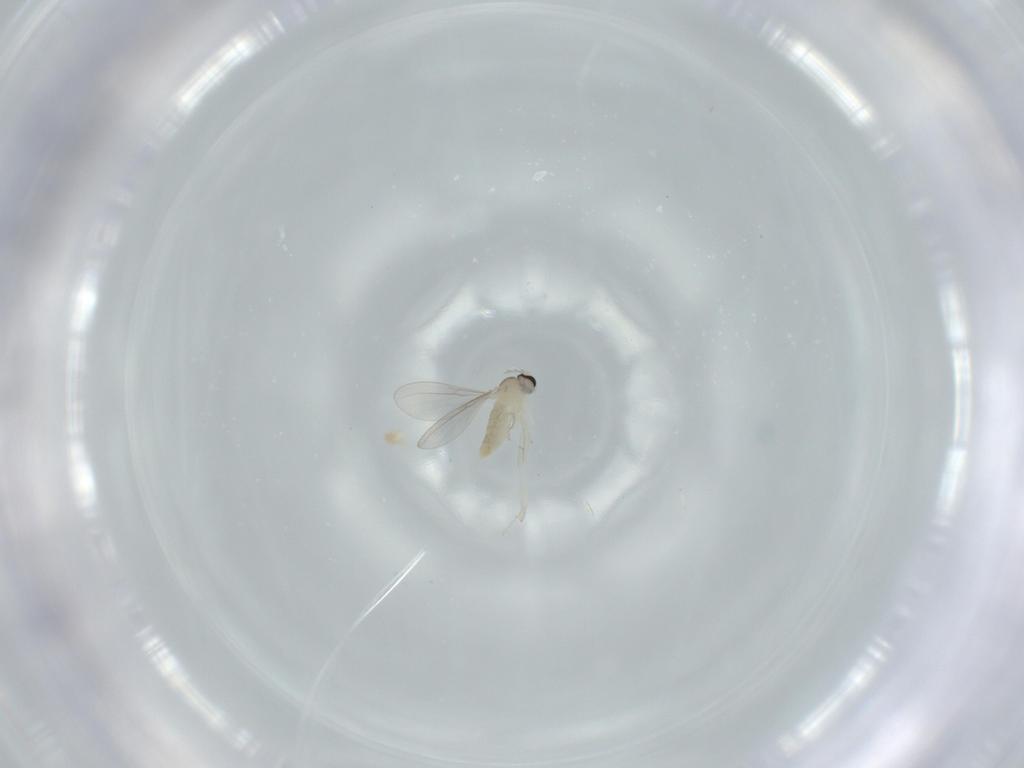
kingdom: Animalia
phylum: Arthropoda
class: Insecta
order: Diptera
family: Cecidomyiidae
